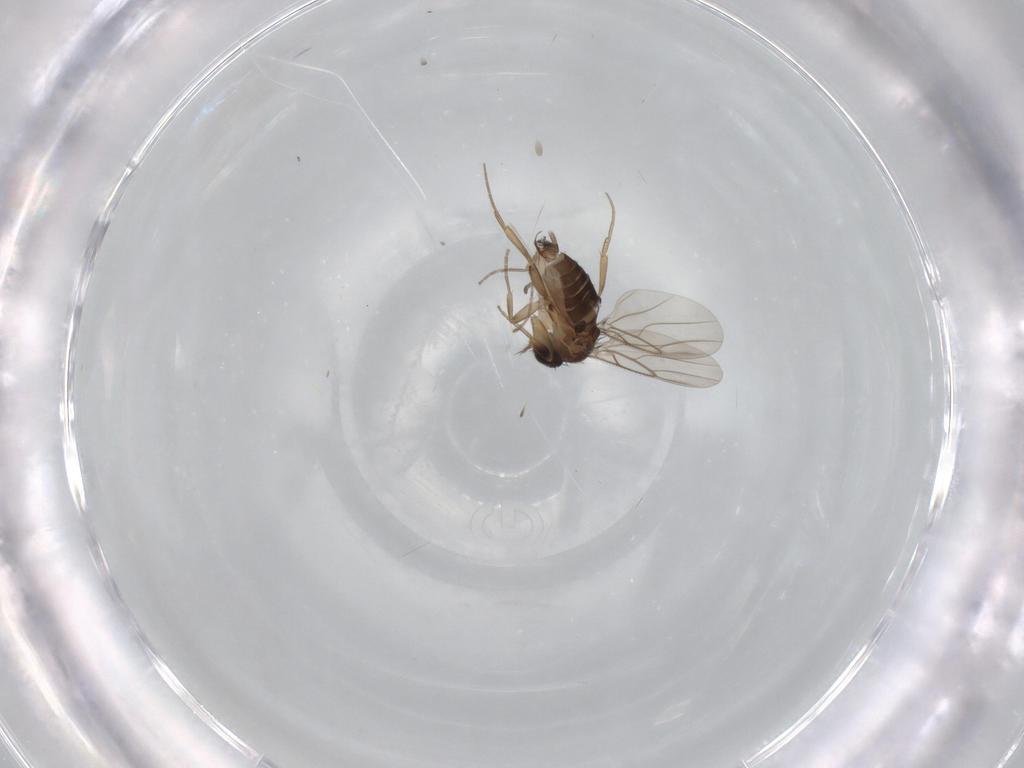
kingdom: Animalia
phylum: Arthropoda
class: Insecta
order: Diptera
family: Phoridae
